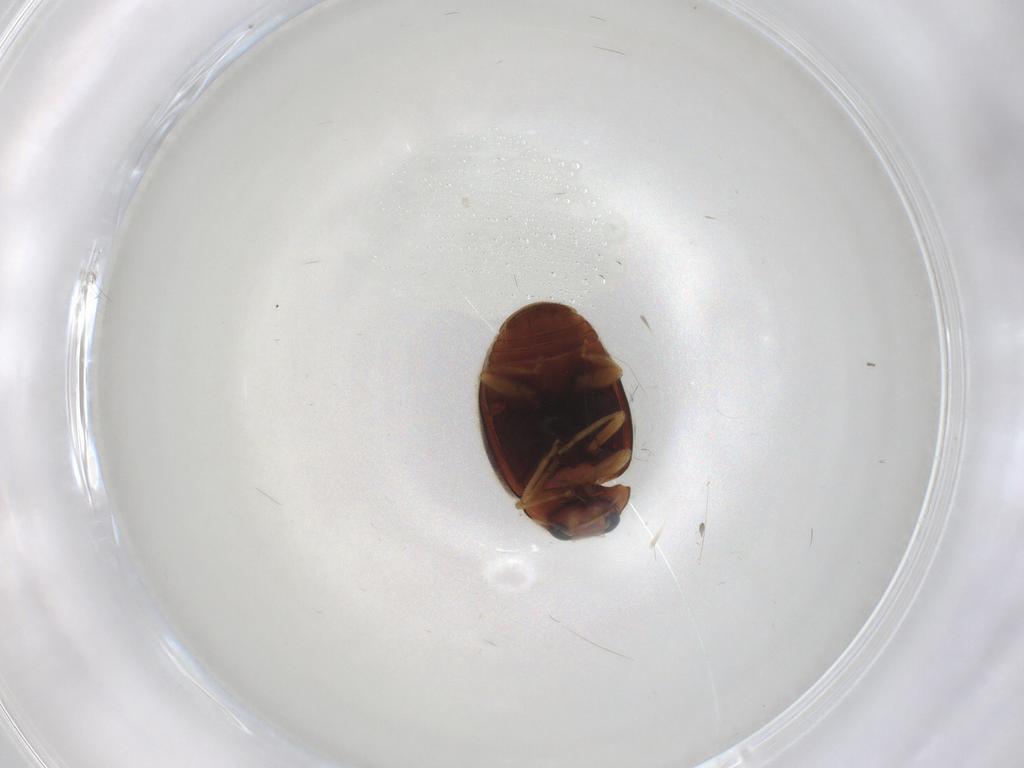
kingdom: Animalia
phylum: Arthropoda
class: Insecta
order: Coleoptera
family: Coccinellidae
